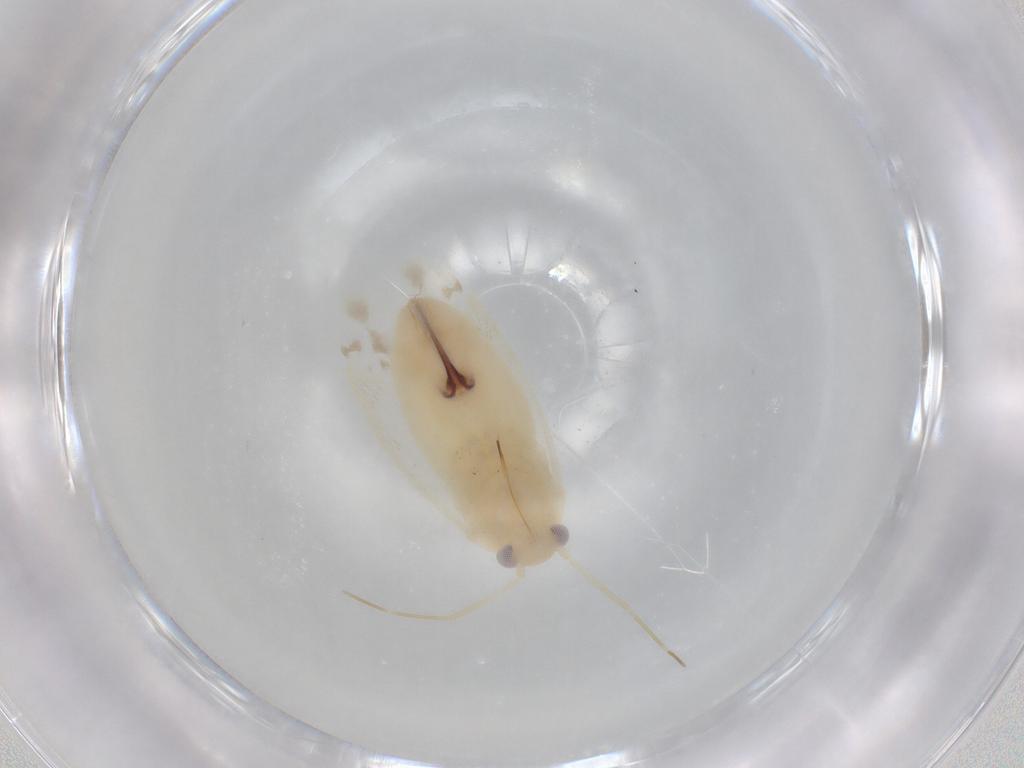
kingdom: Animalia
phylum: Arthropoda
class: Insecta
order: Hemiptera
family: Miridae
